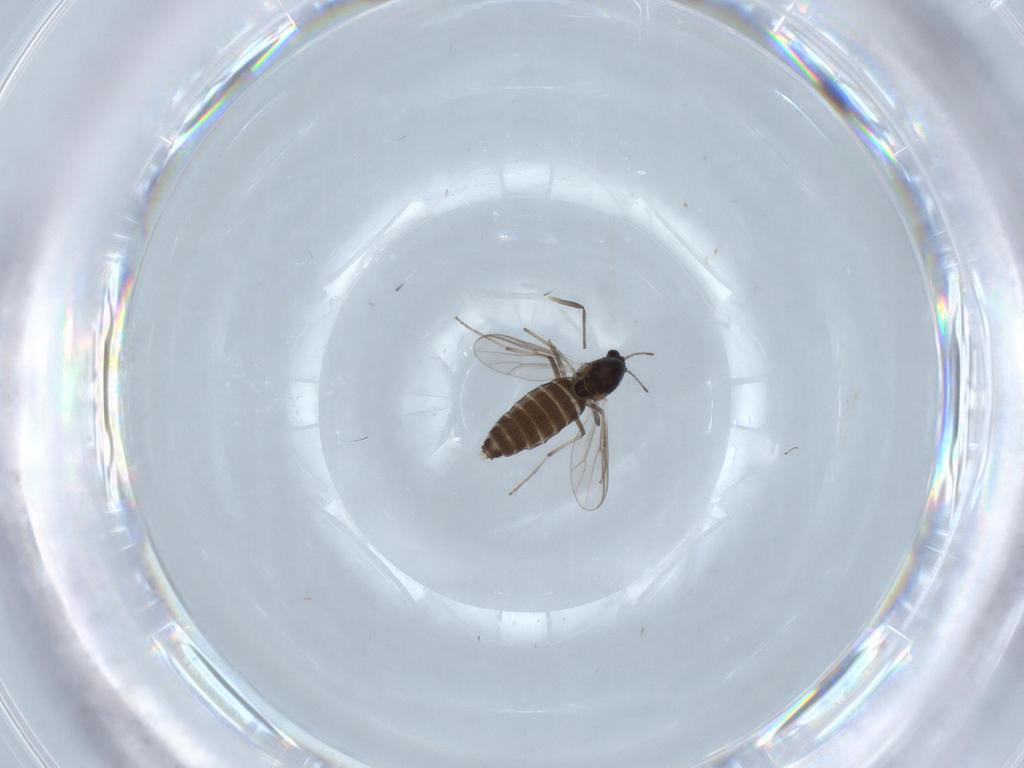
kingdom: Animalia
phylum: Arthropoda
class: Insecta
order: Diptera
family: Chironomidae
